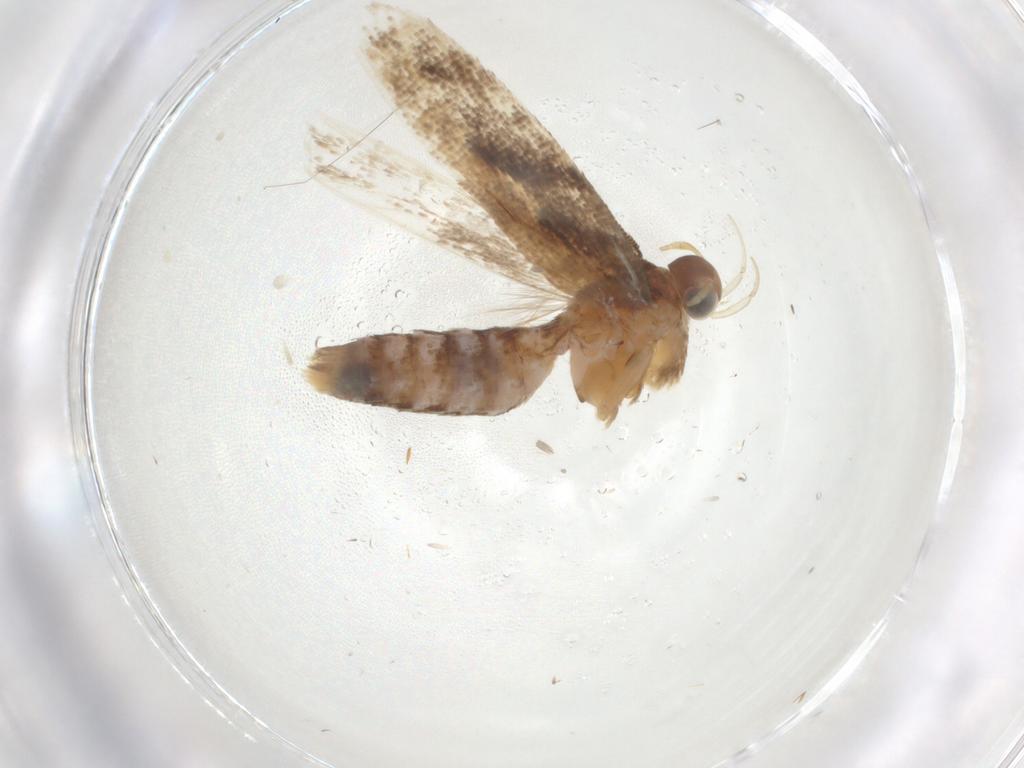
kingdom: Animalia
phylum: Arthropoda
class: Insecta
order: Lepidoptera
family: Gelechiidae
